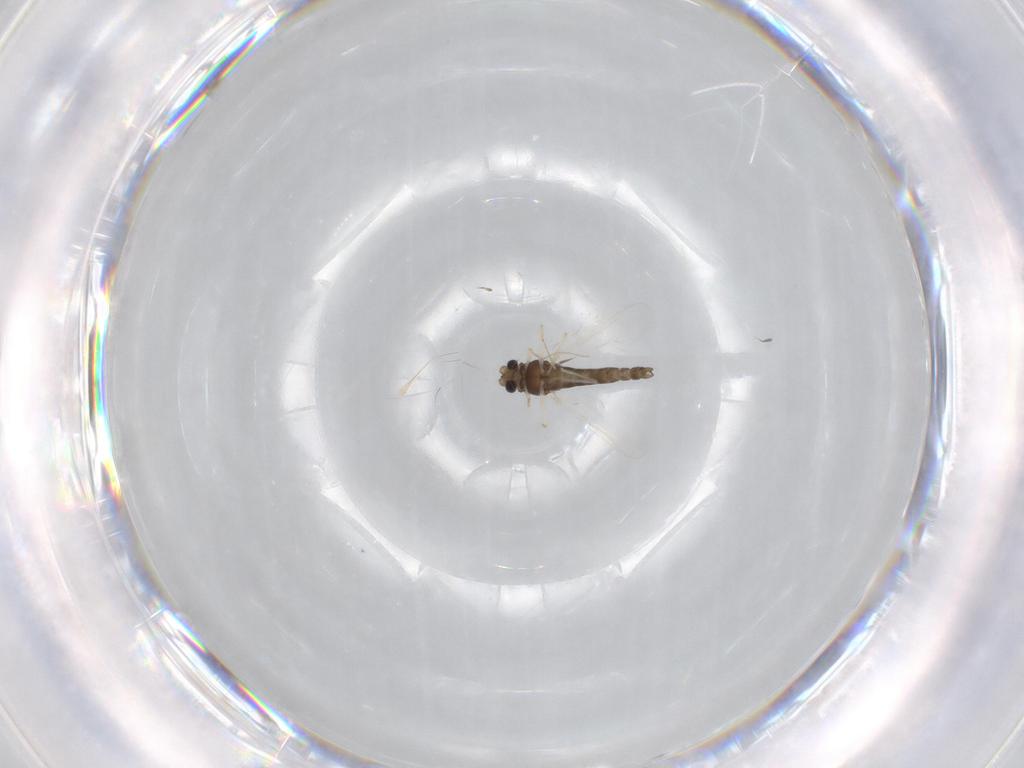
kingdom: Animalia
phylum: Arthropoda
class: Insecta
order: Diptera
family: Chironomidae
